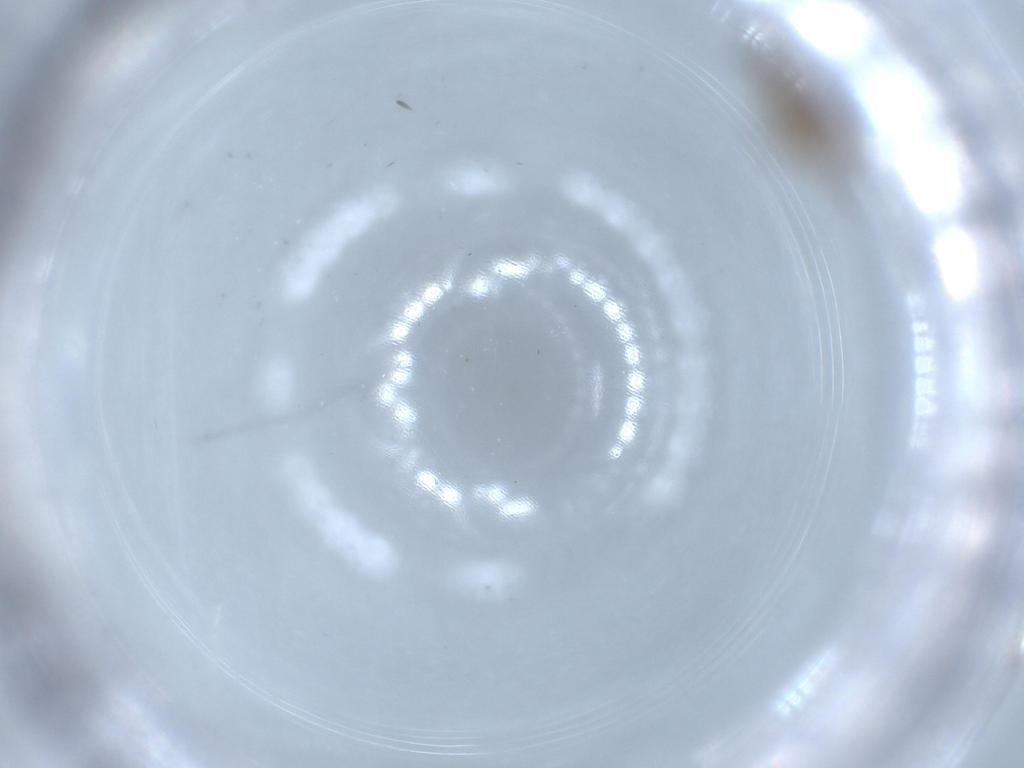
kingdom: Animalia
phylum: Arthropoda
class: Insecta
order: Diptera
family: Sciaridae
